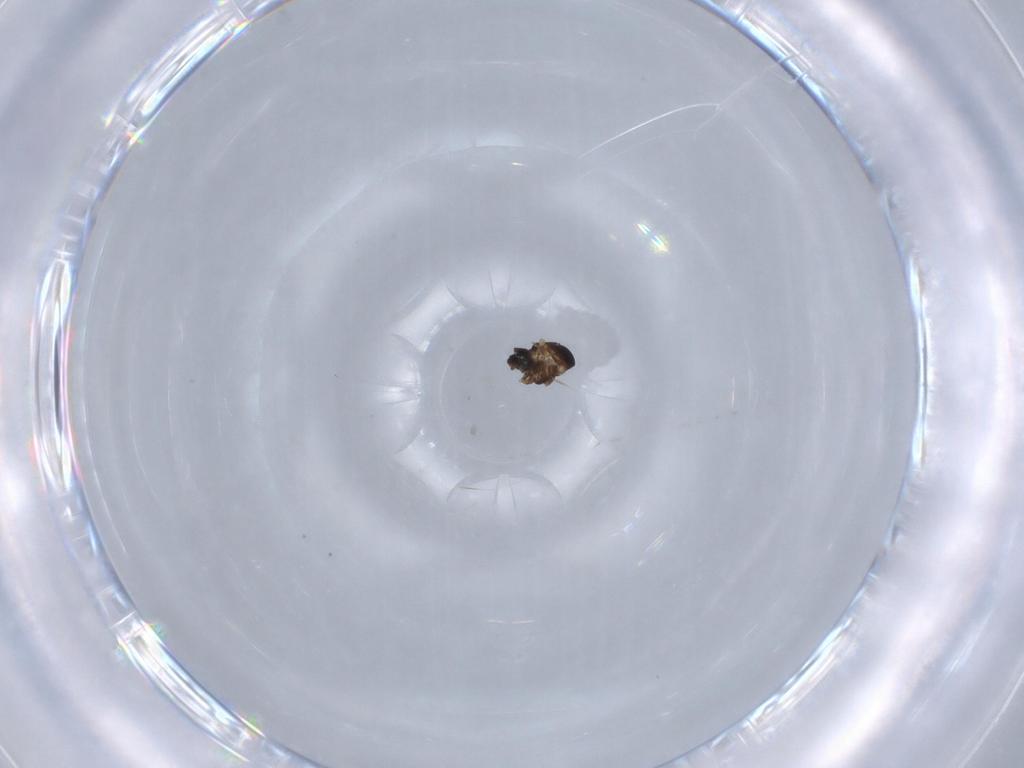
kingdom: Animalia
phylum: Arthropoda
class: Insecta
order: Diptera
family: Ceratopogonidae
